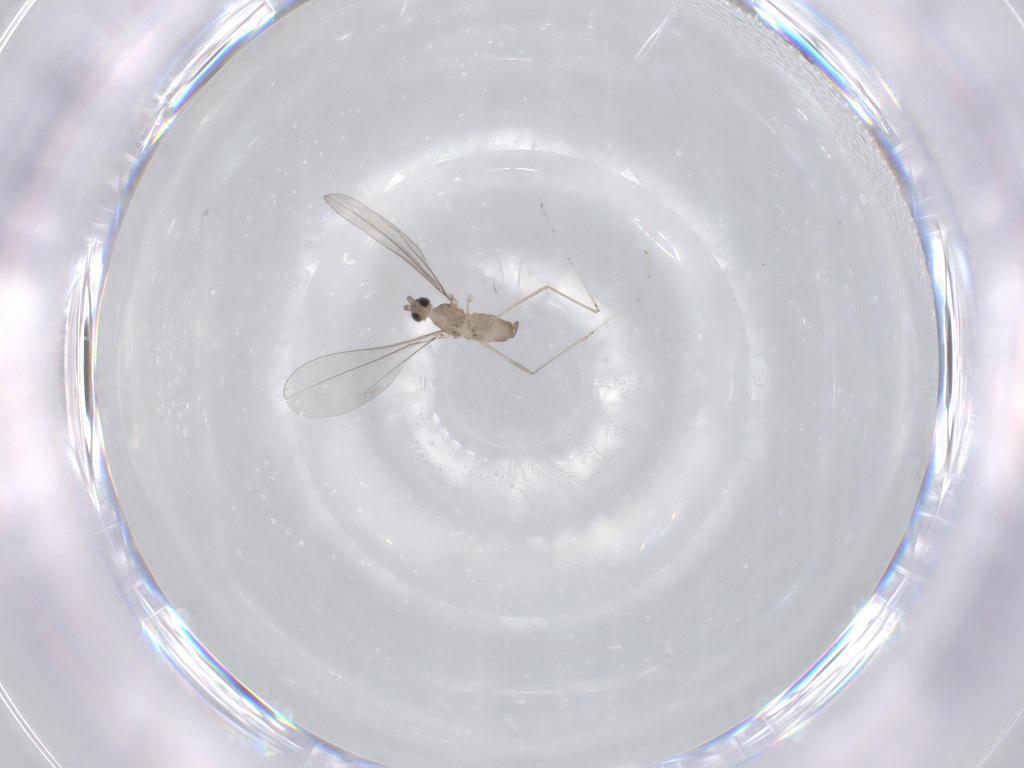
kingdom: Animalia
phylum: Arthropoda
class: Insecta
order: Diptera
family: Cecidomyiidae
